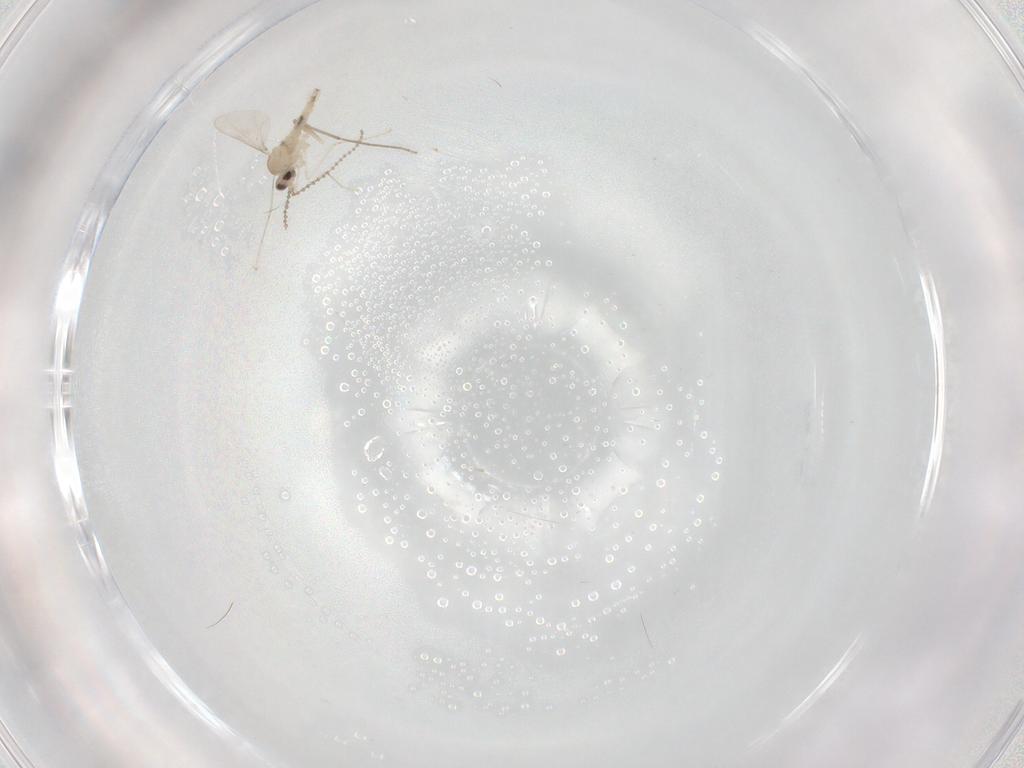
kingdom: Animalia
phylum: Arthropoda
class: Insecta
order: Diptera
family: Cecidomyiidae
